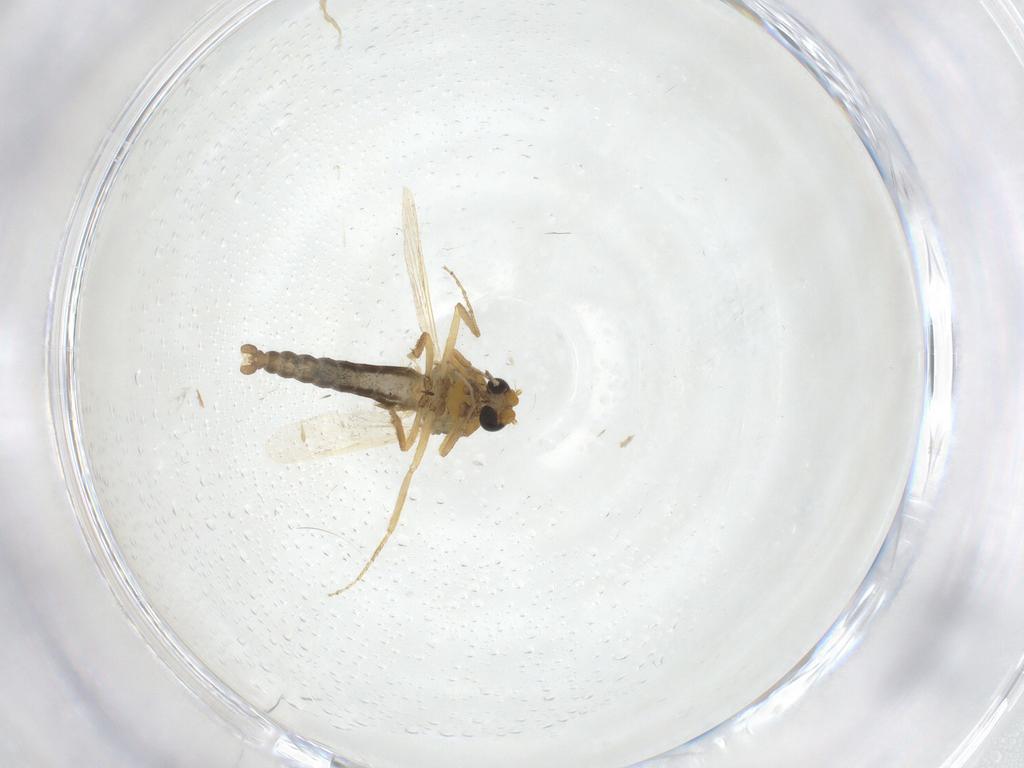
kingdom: Animalia
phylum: Arthropoda
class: Insecta
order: Diptera
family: Ceratopogonidae
